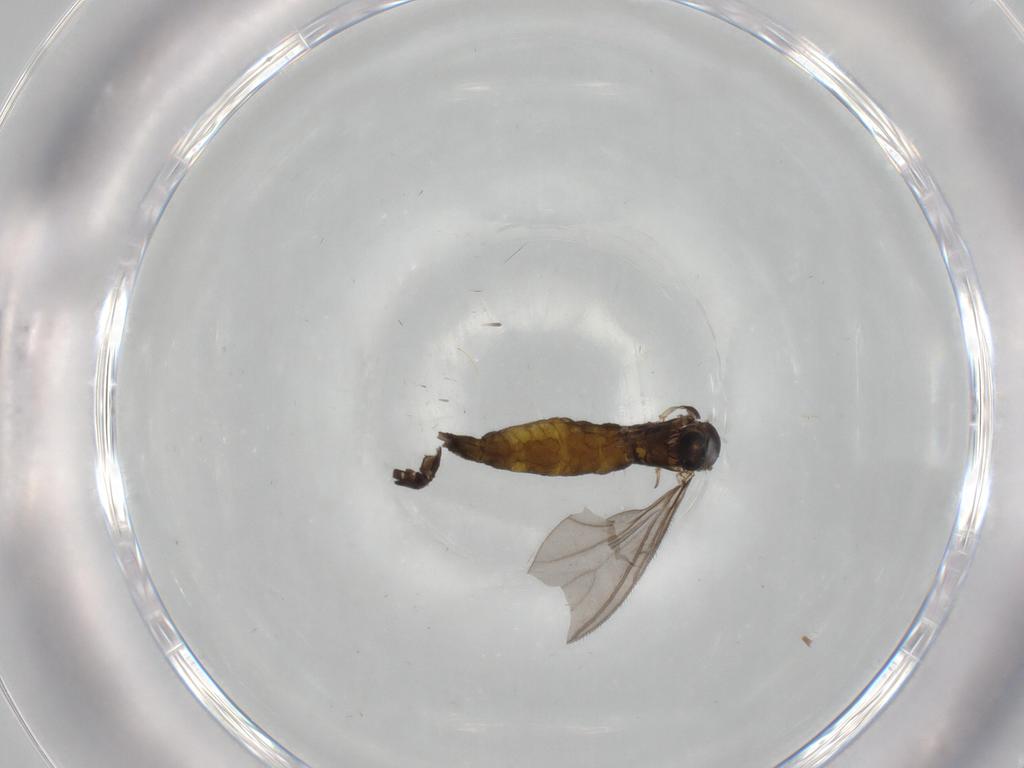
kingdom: Animalia
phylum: Arthropoda
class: Insecta
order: Diptera
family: Sciaridae
